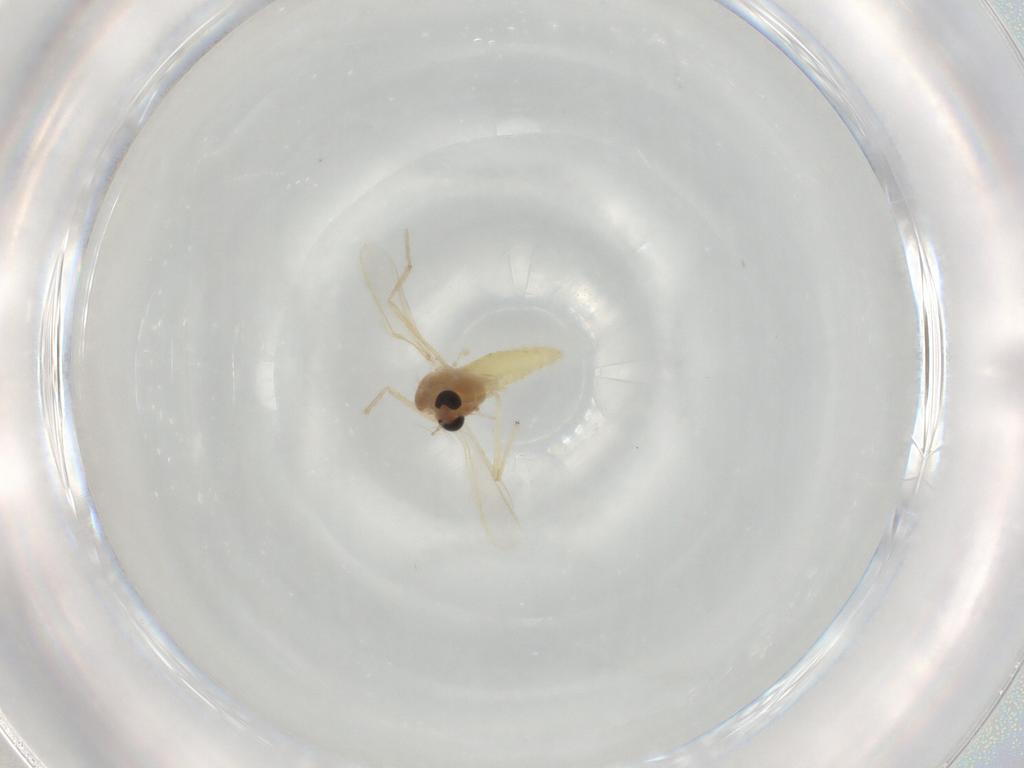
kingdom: Animalia
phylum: Arthropoda
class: Insecta
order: Diptera
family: Chironomidae
